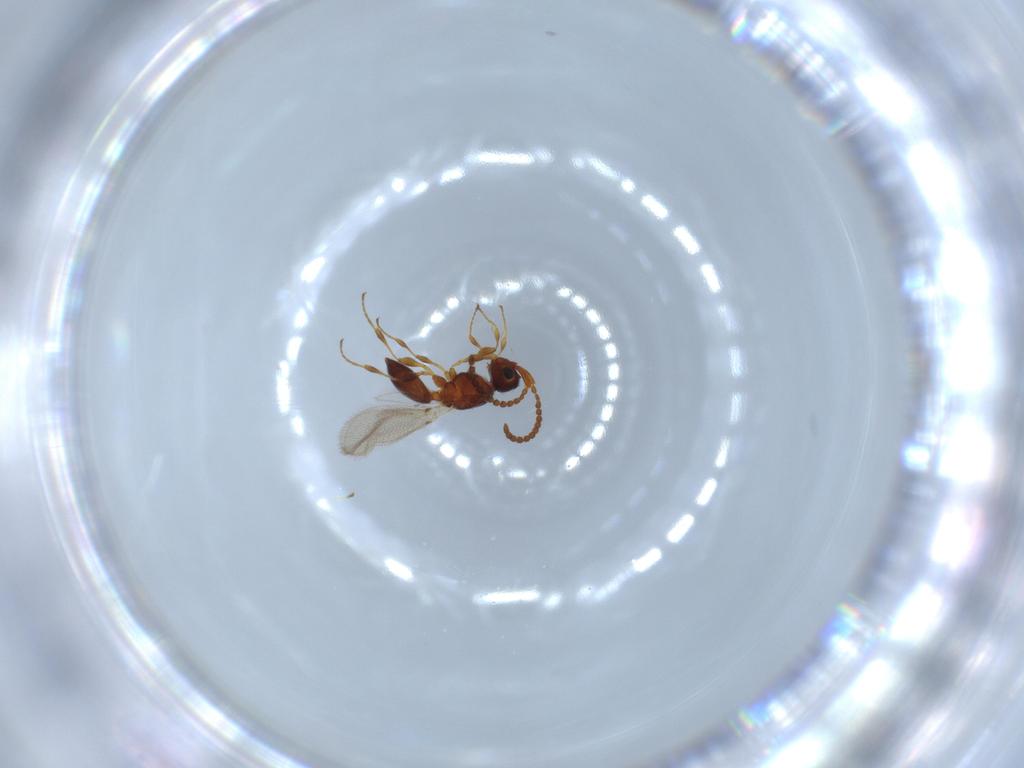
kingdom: Animalia
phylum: Arthropoda
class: Insecta
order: Hymenoptera
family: Diapriidae
